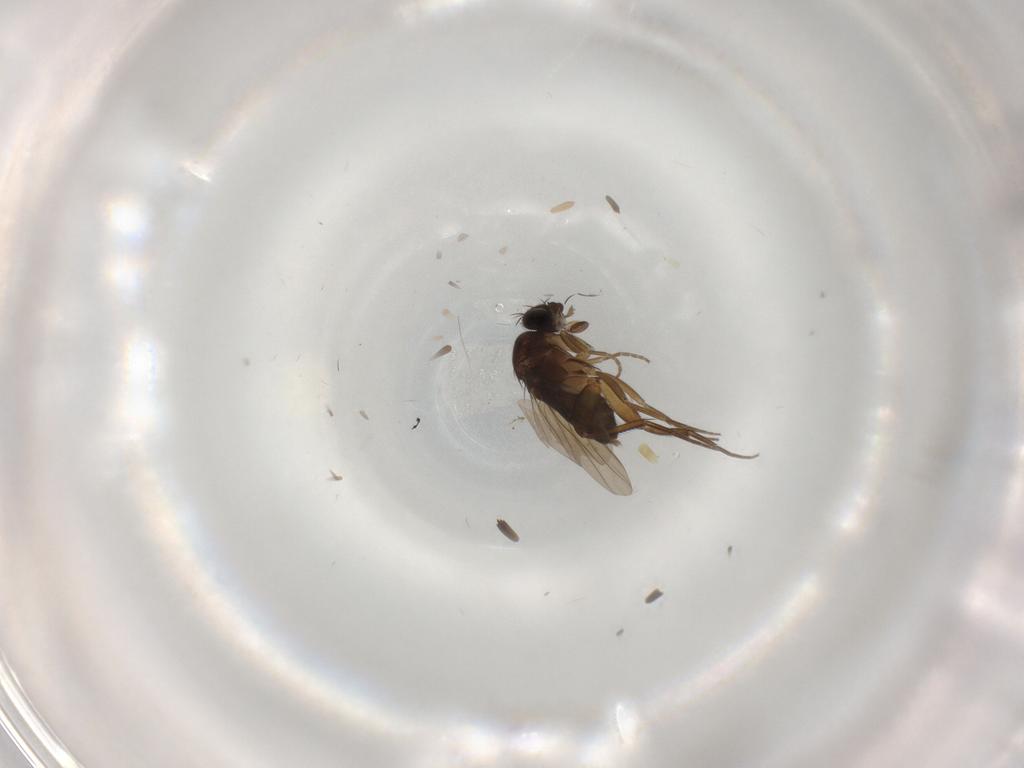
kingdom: Animalia
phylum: Arthropoda
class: Insecta
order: Diptera
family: Phoridae
